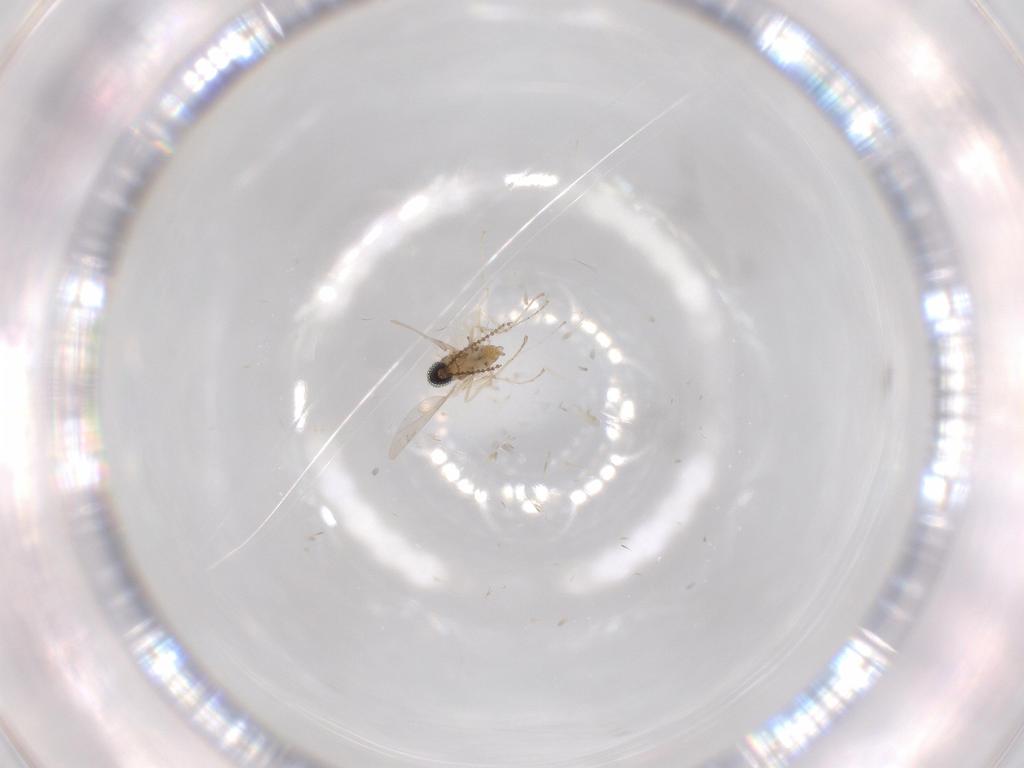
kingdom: Animalia
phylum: Arthropoda
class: Insecta
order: Diptera
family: Cecidomyiidae
